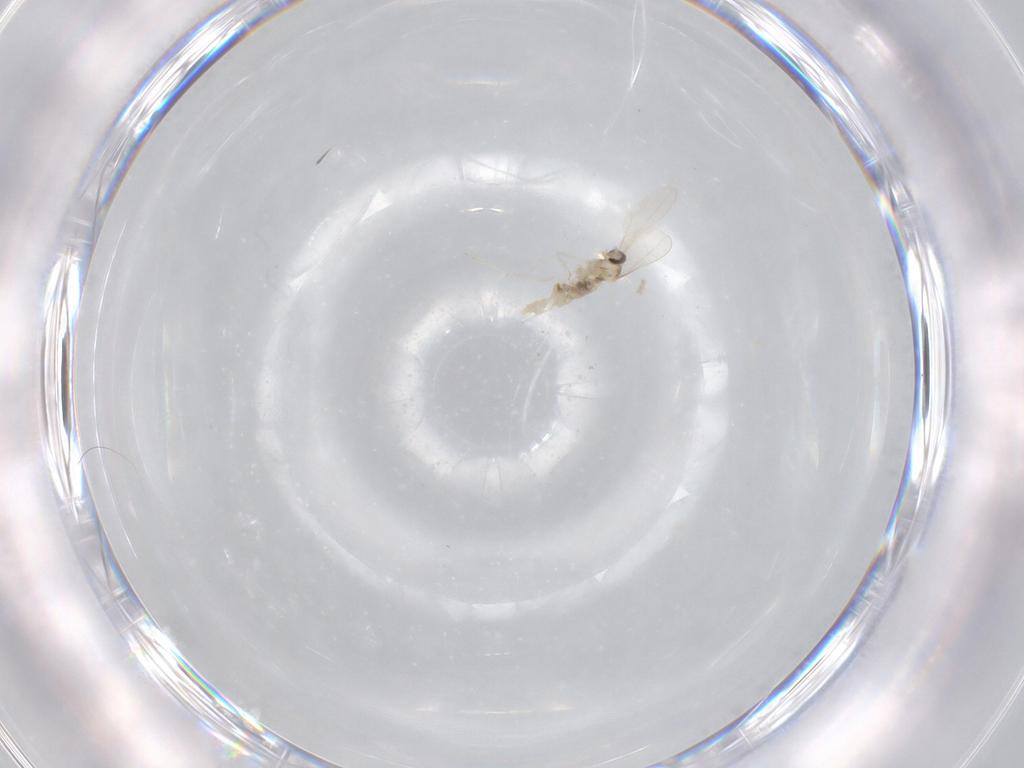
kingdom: Animalia
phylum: Arthropoda
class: Insecta
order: Diptera
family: Cecidomyiidae
